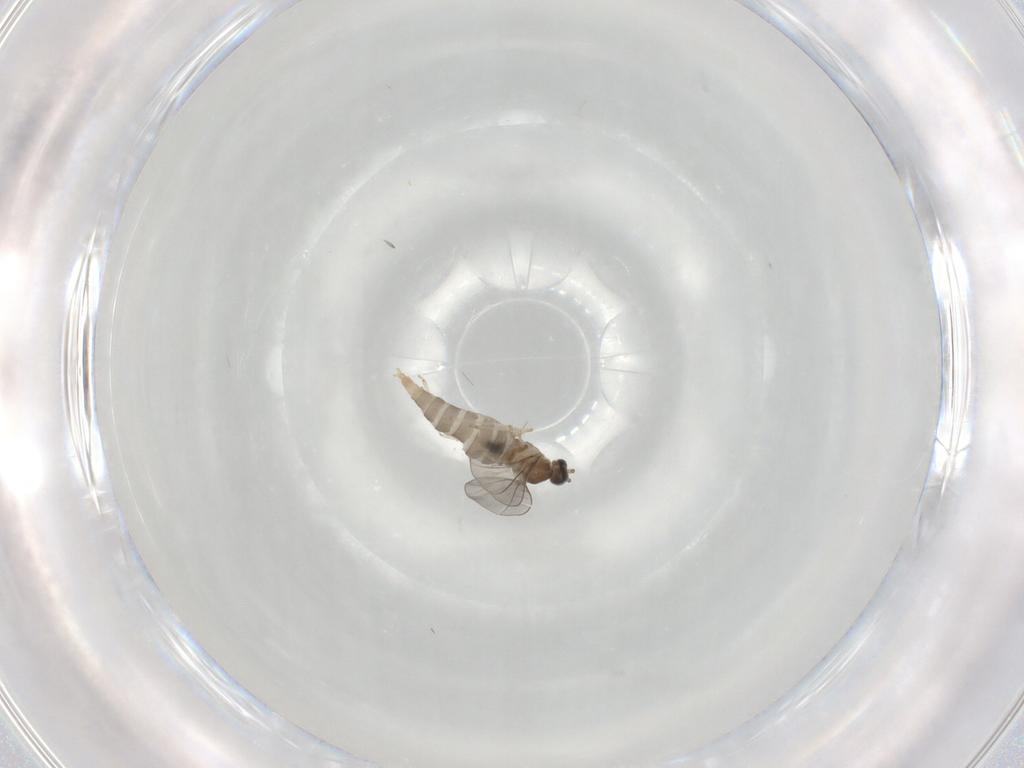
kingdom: Animalia
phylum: Arthropoda
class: Insecta
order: Diptera
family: Cecidomyiidae
